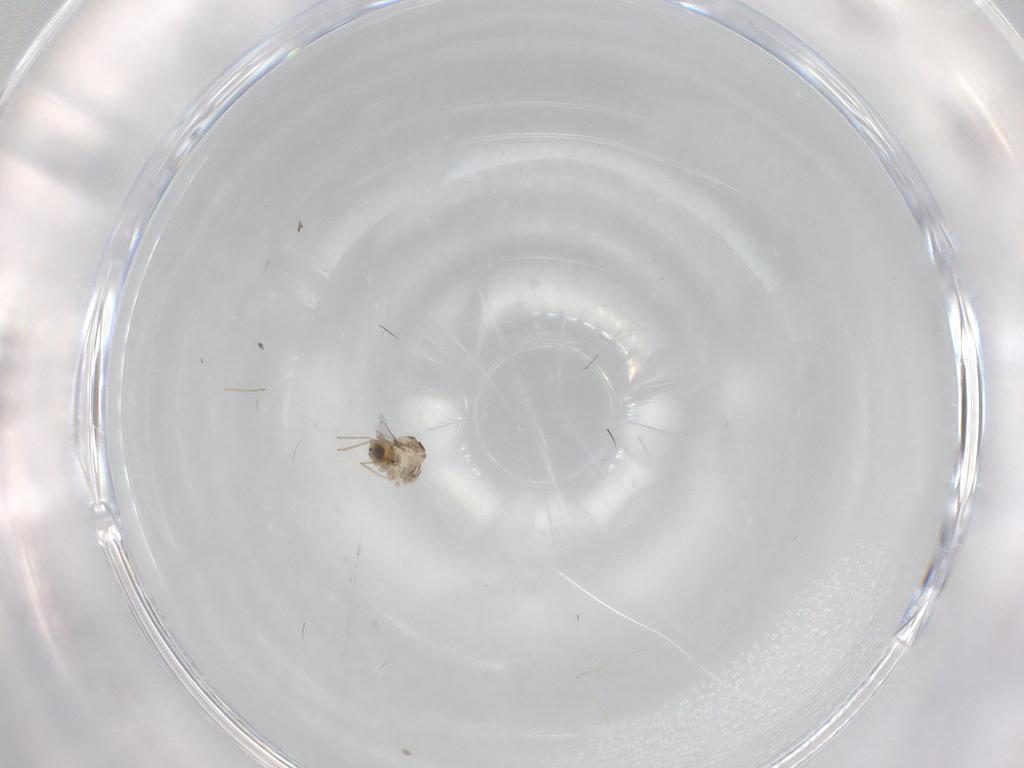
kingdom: Animalia
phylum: Arthropoda
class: Insecta
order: Diptera
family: Cecidomyiidae
